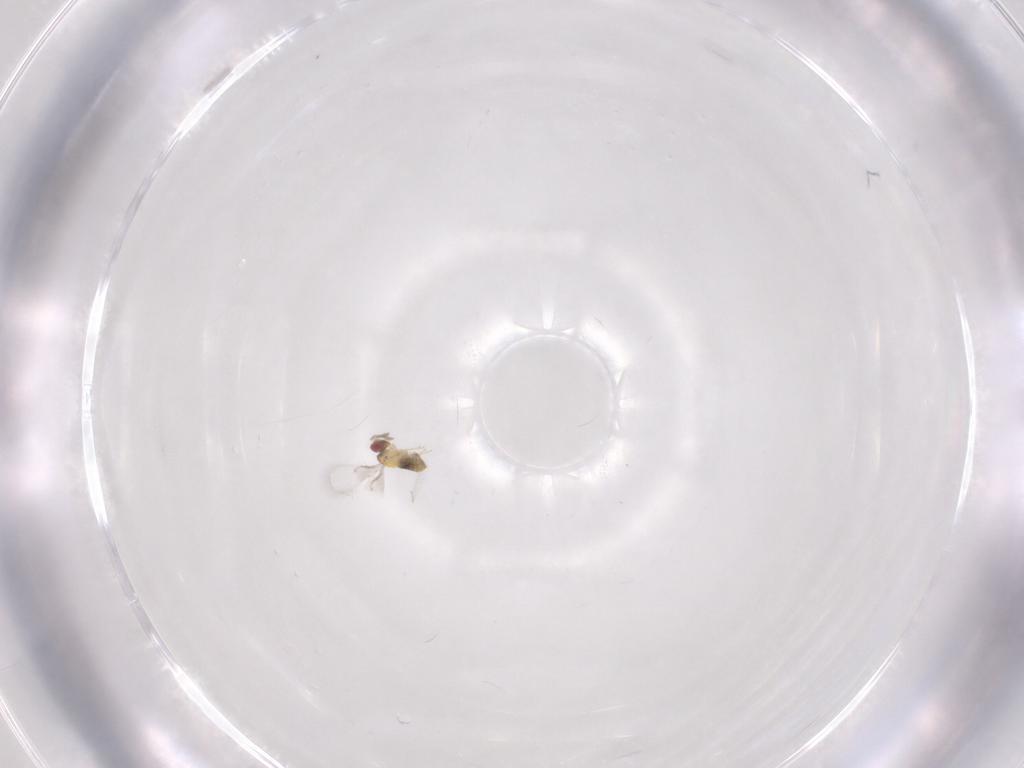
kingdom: Animalia
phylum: Arthropoda
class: Insecta
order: Hymenoptera
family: Trichogrammatidae
